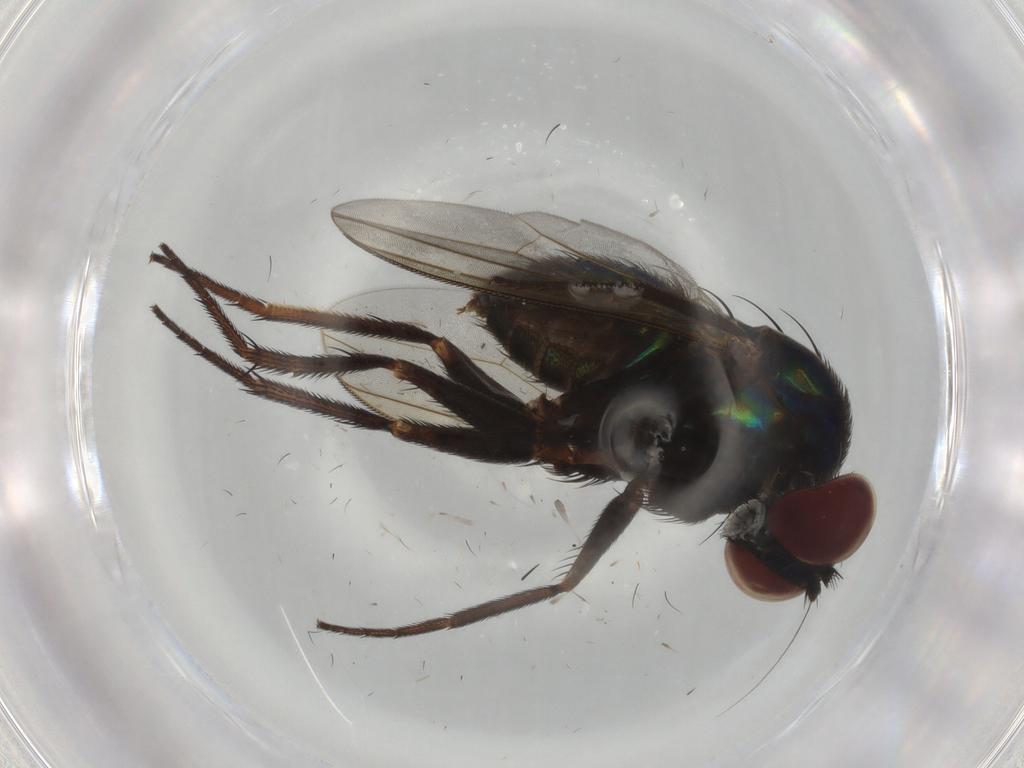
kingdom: Animalia
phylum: Arthropoda
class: Insecta
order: Diptera
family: Dolichopodidae
